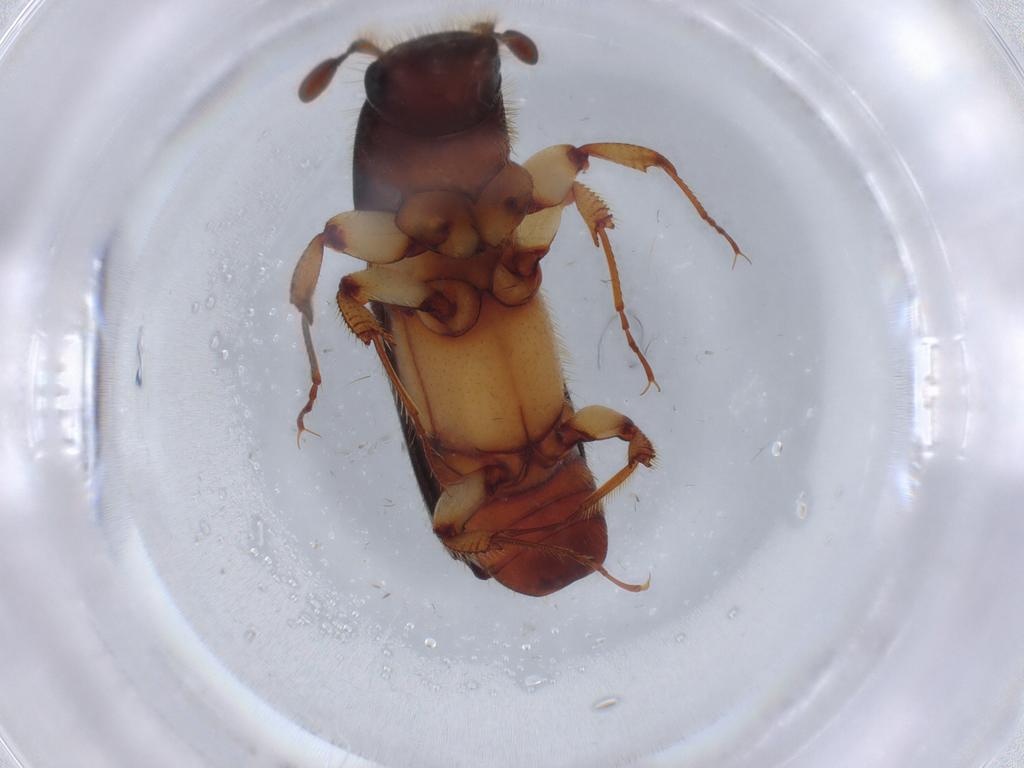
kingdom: Animalia
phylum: Arthropoda
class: Insecta
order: Coleoptera
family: Curculionidae
